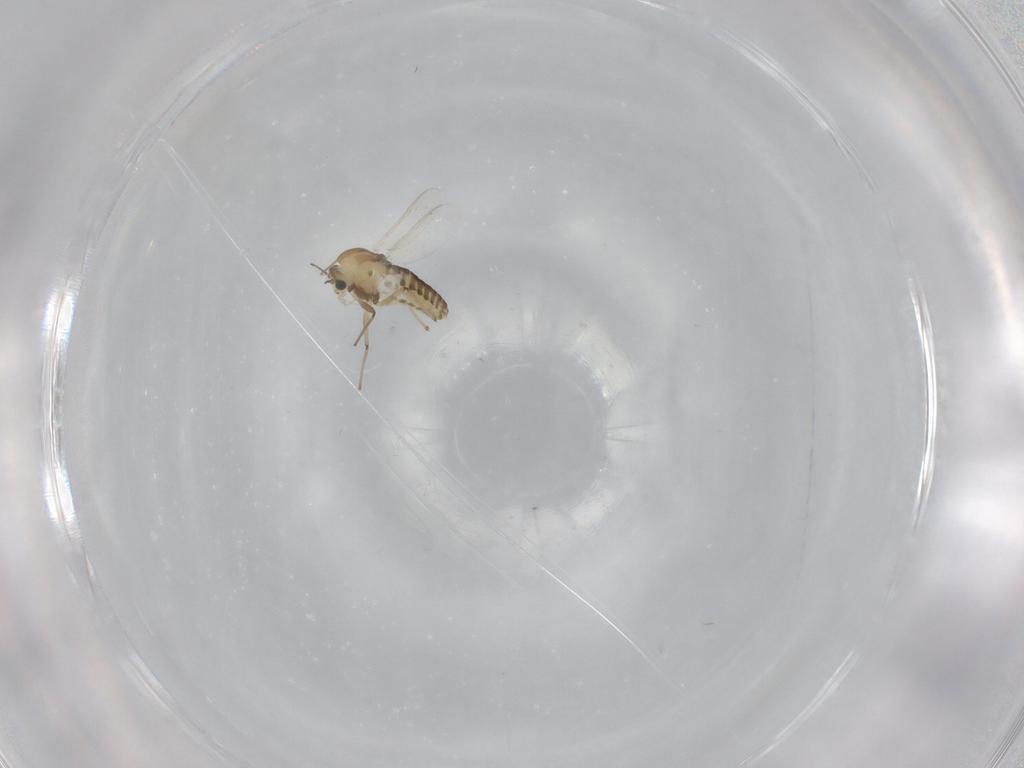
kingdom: Animalia
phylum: Arthropoda
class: Insecta
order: Diptera
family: Chironomidae
